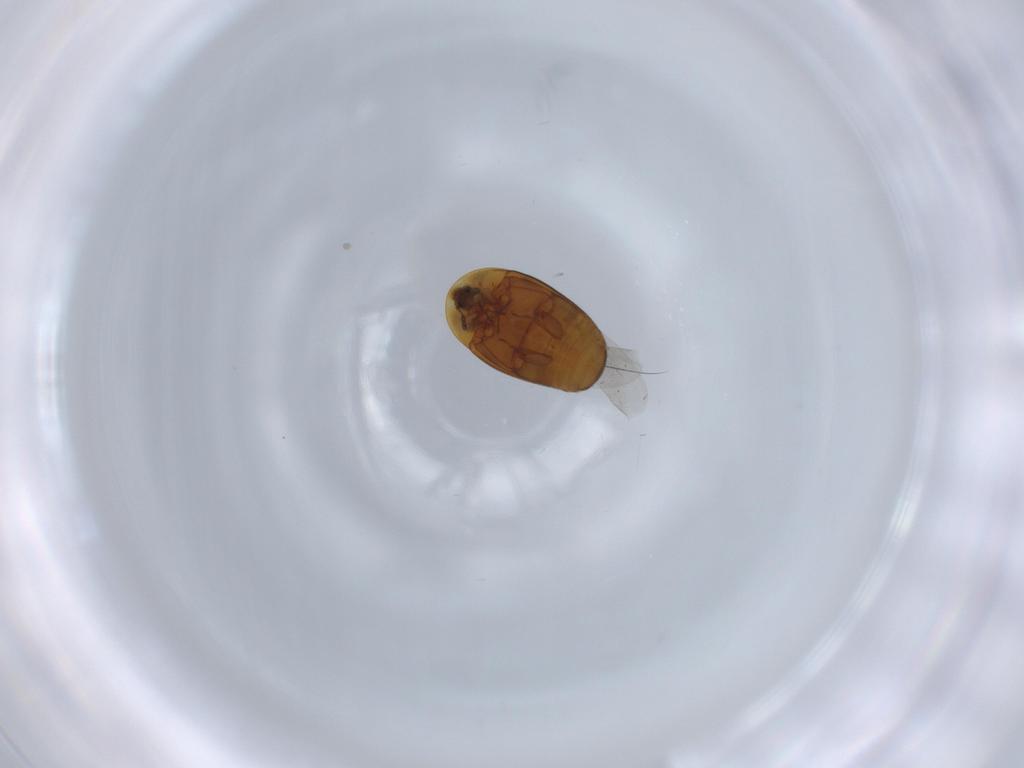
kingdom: Animalia
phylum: Arthropoda
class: Insecta
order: Coleoptera
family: Corylophidae
